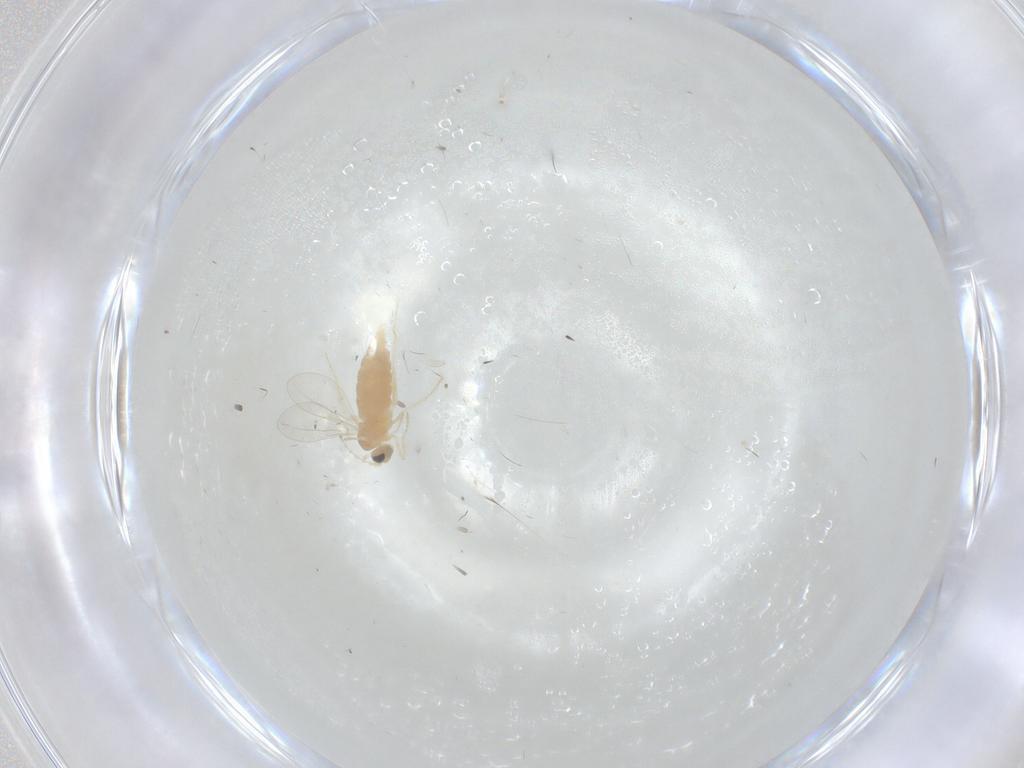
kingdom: Animalia
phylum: Arthropoda
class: Insecta
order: Diptera
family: Cecidomyiidae
